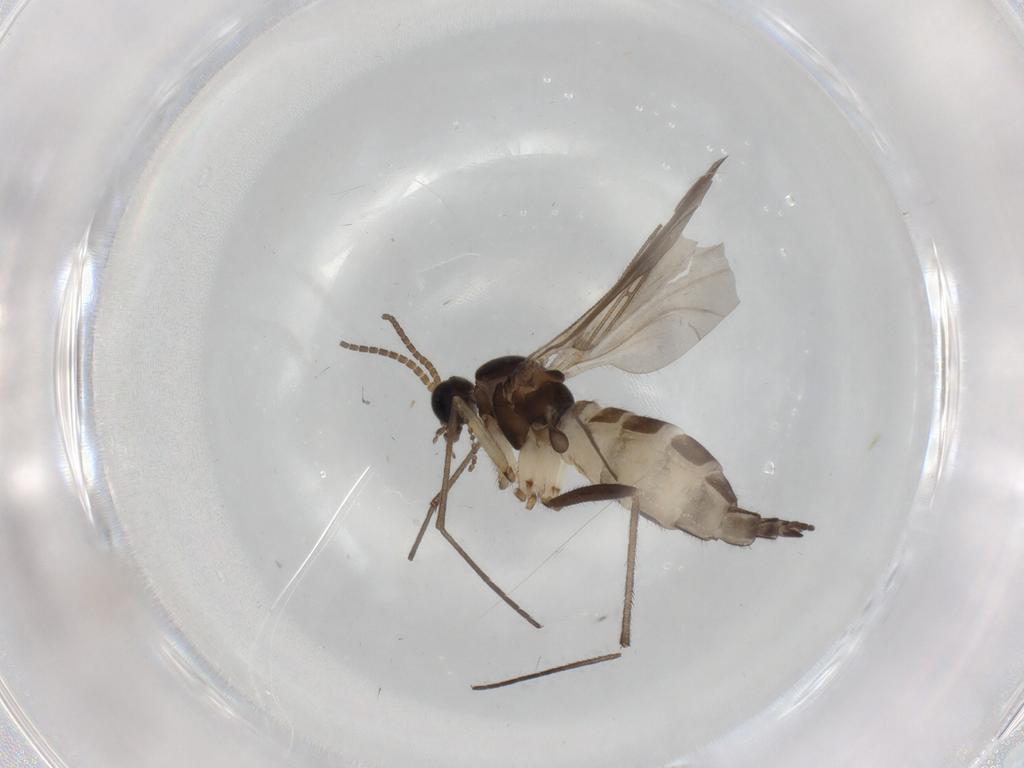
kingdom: Animalia
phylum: Arthropoda
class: Insecta
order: Diptera
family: Sciaridae
